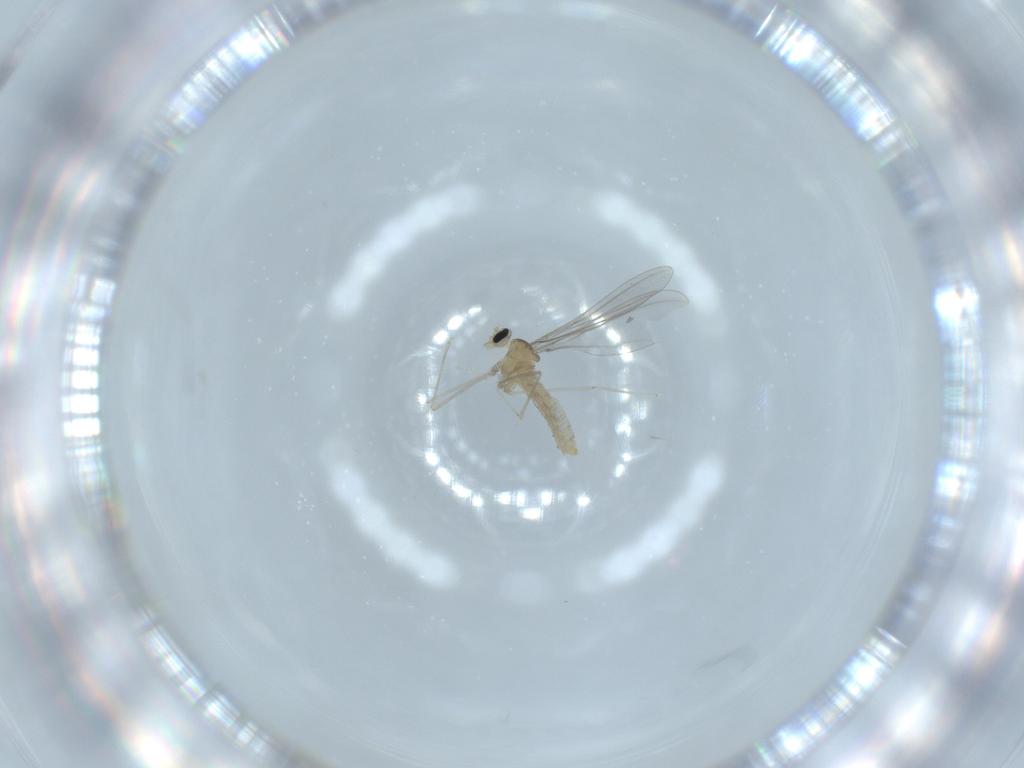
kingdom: Animalia
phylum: Arthropoda
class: Insecta
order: Diptera
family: Cecidomyiidae
